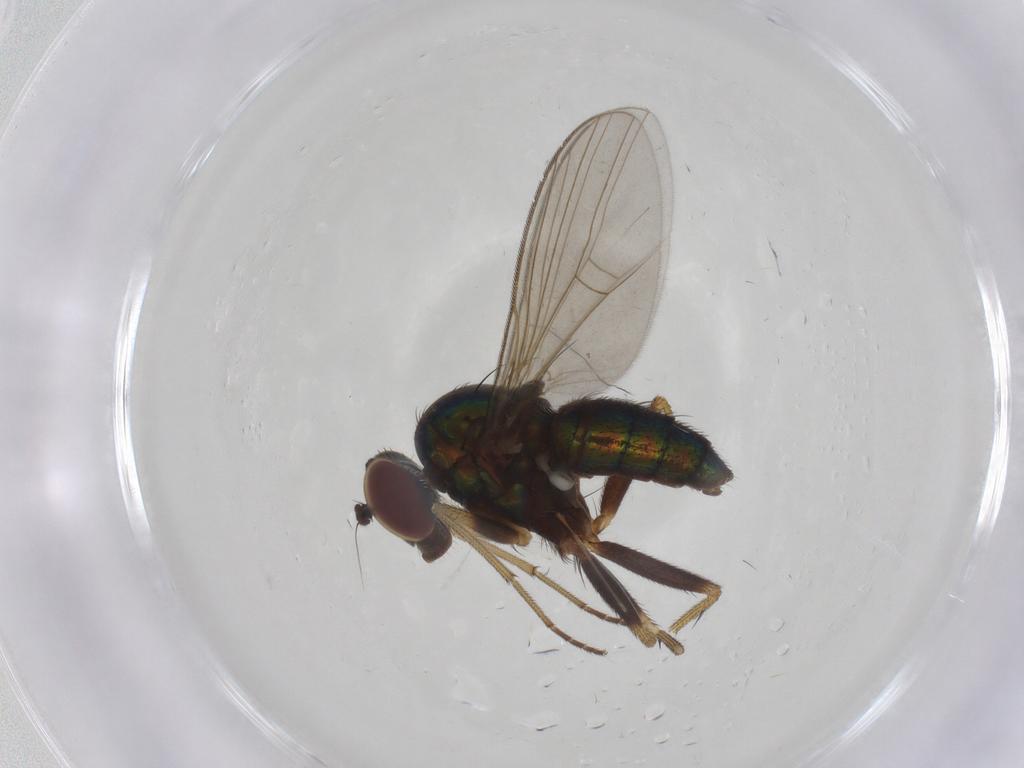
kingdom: Animalia
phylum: Arthropoda
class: Insecta
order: Diptera
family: Dolichopodidae
